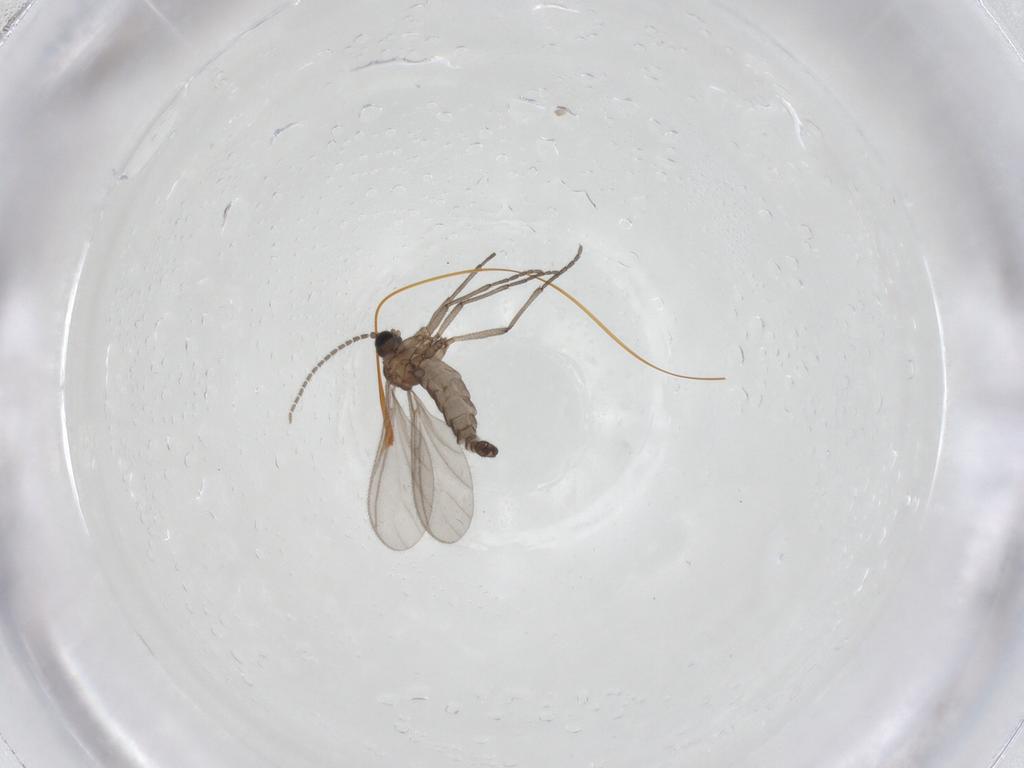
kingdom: Animalia
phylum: Arthropoda
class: Insecta
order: Diptera
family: Sciaridae
